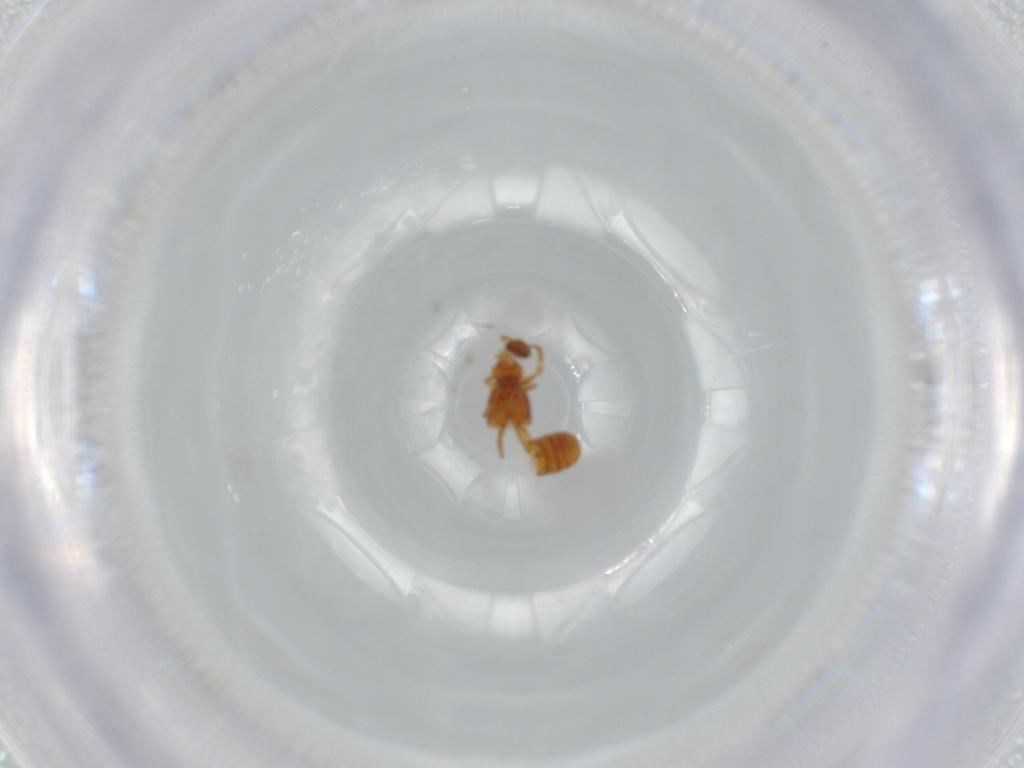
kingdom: Animalia
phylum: Arthropoda
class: Insecta
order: Coleoptera
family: Staphylinidae
